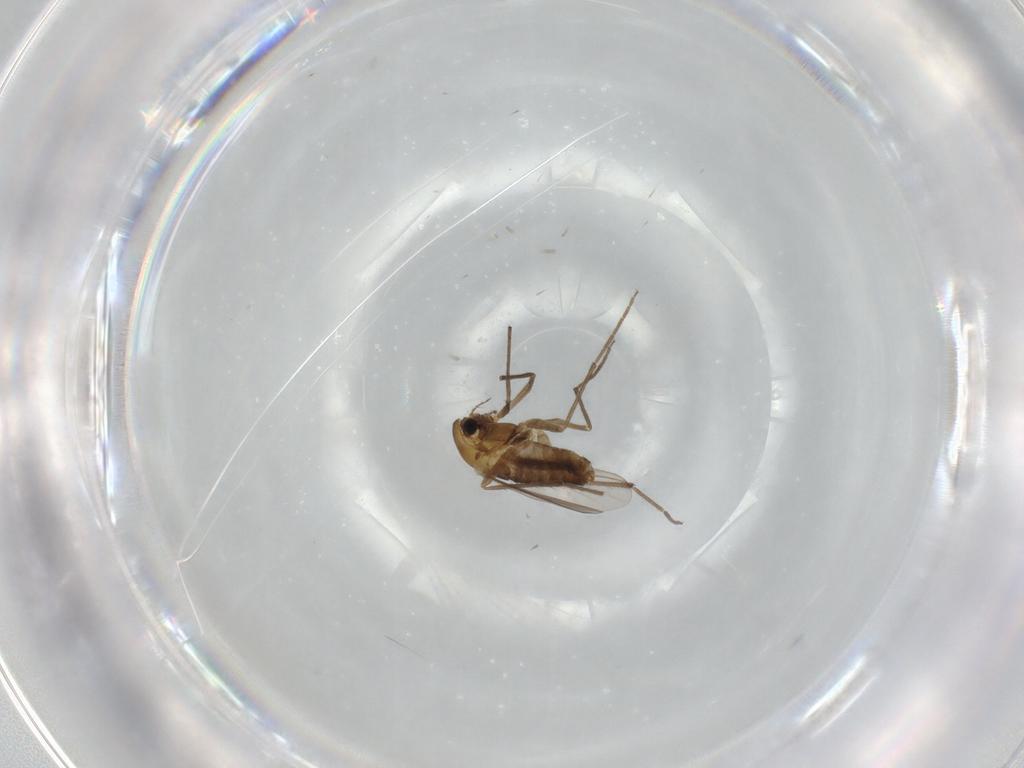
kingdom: Animalia
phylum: Arthropoda
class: Insecta
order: Diptera
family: Chironomidae
